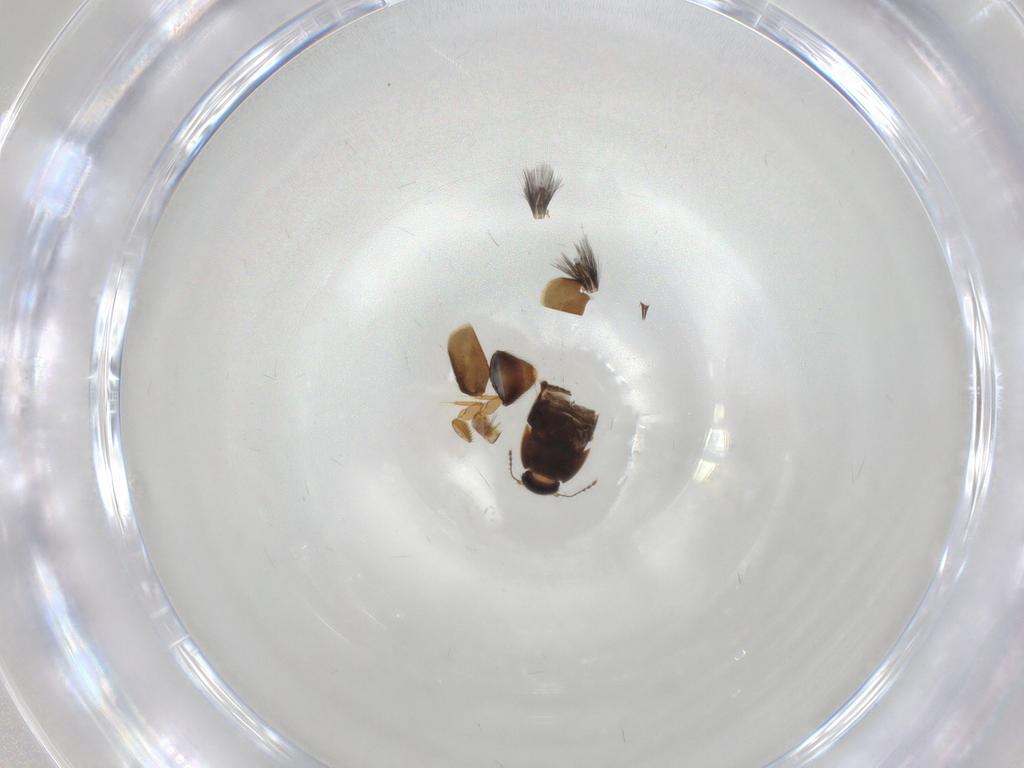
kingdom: Animalia
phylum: Arthropoda
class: Insecta
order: Coleoptera
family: Ptiliidae
